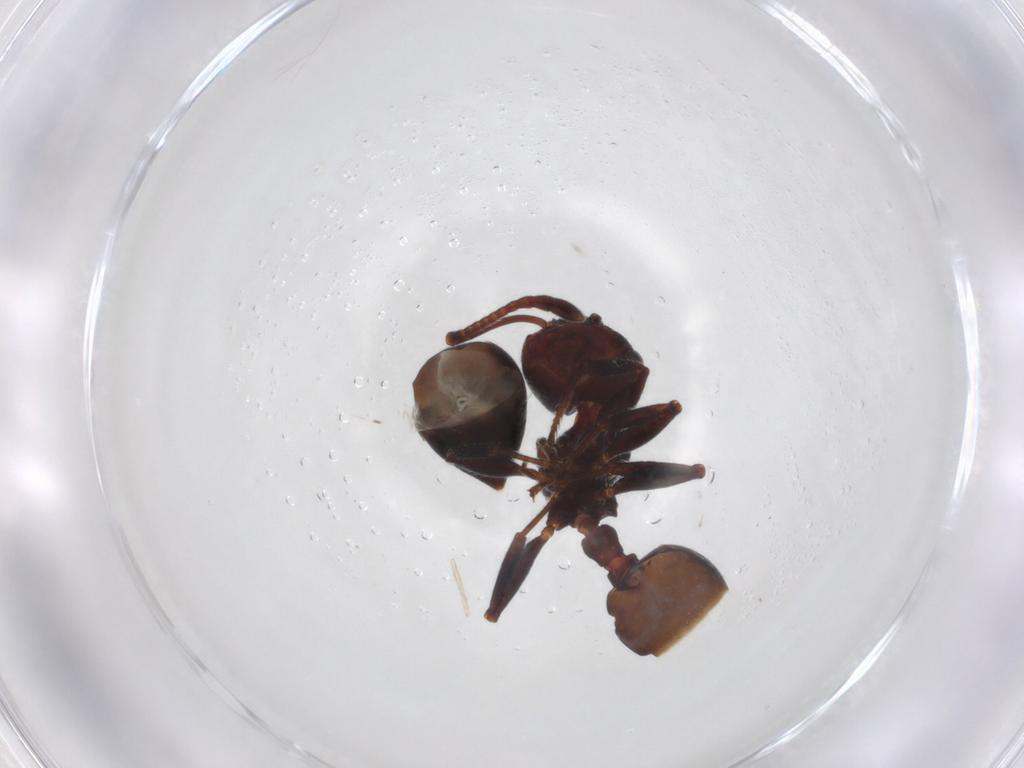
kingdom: Animalia
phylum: Arthropoda
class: Insecta
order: Hymenoptera
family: Formicidae
